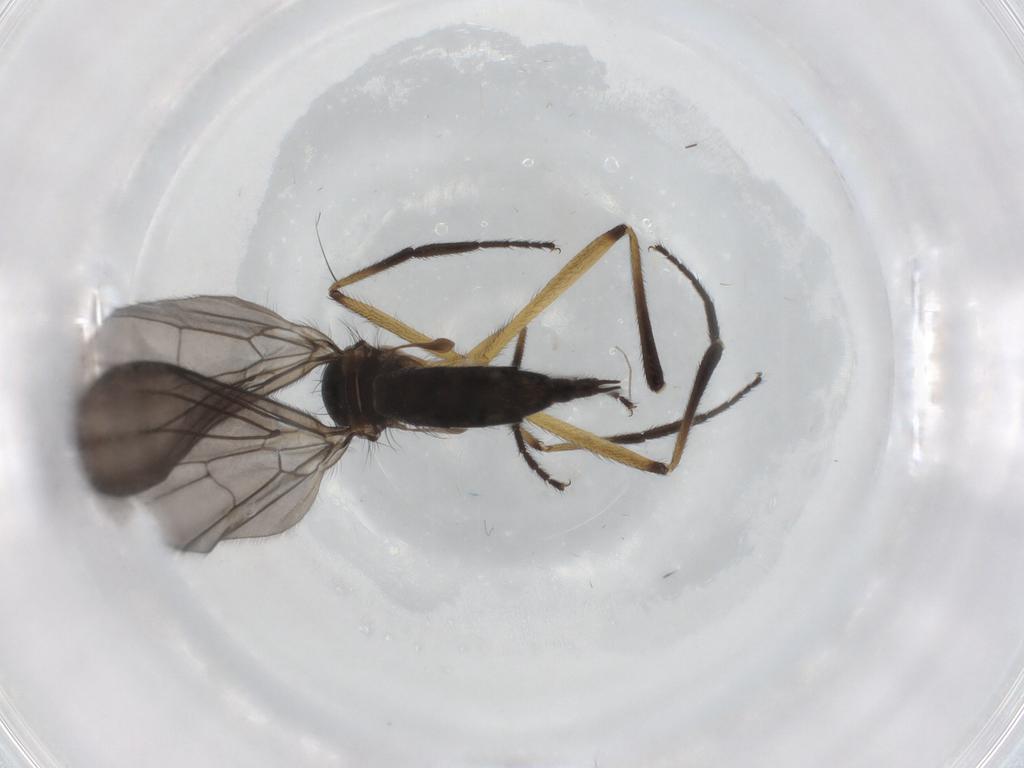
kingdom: Animalia
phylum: Arthropoda
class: Insecta
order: Diptera
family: Empididae
